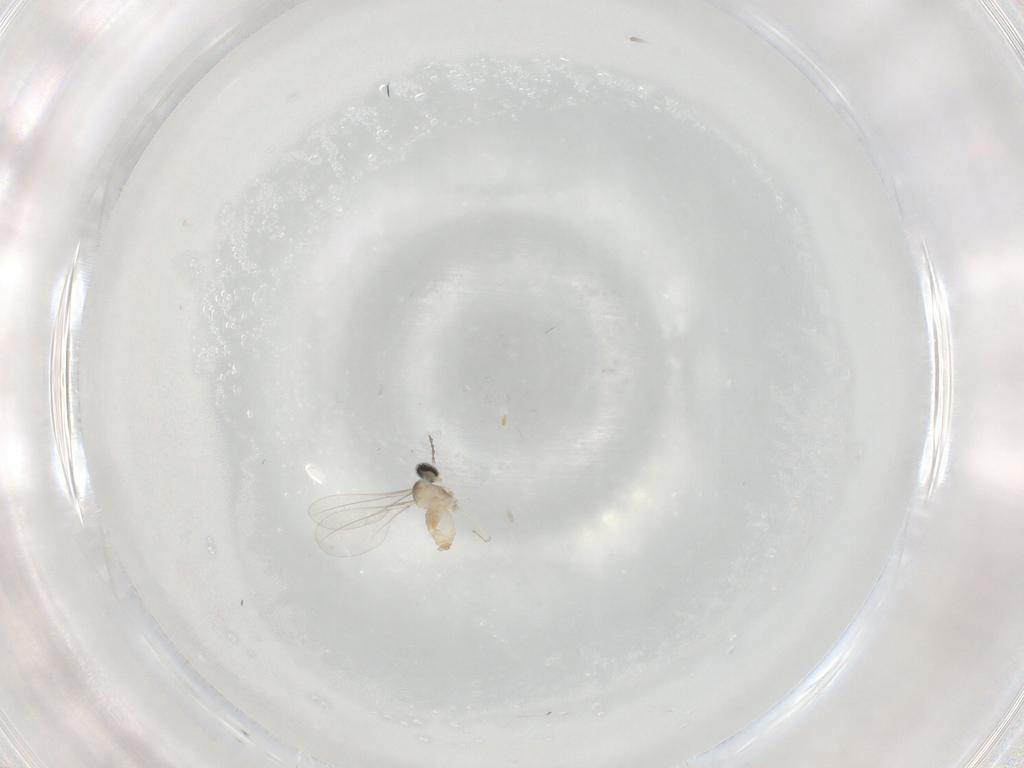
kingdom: Animalia
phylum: Arthropoda
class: Insecta
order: Diptera
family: Cecidomyiidae
